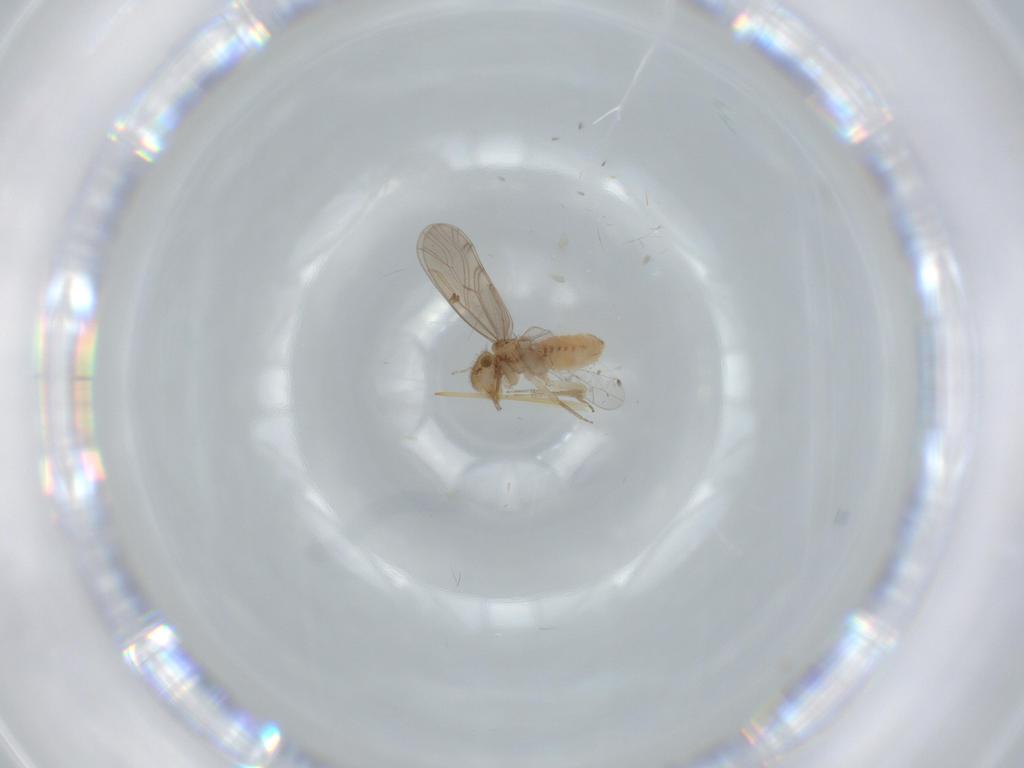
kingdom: Animalia
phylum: Arthropoda
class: Insecta
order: Psocodea
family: Ectopsocidae
